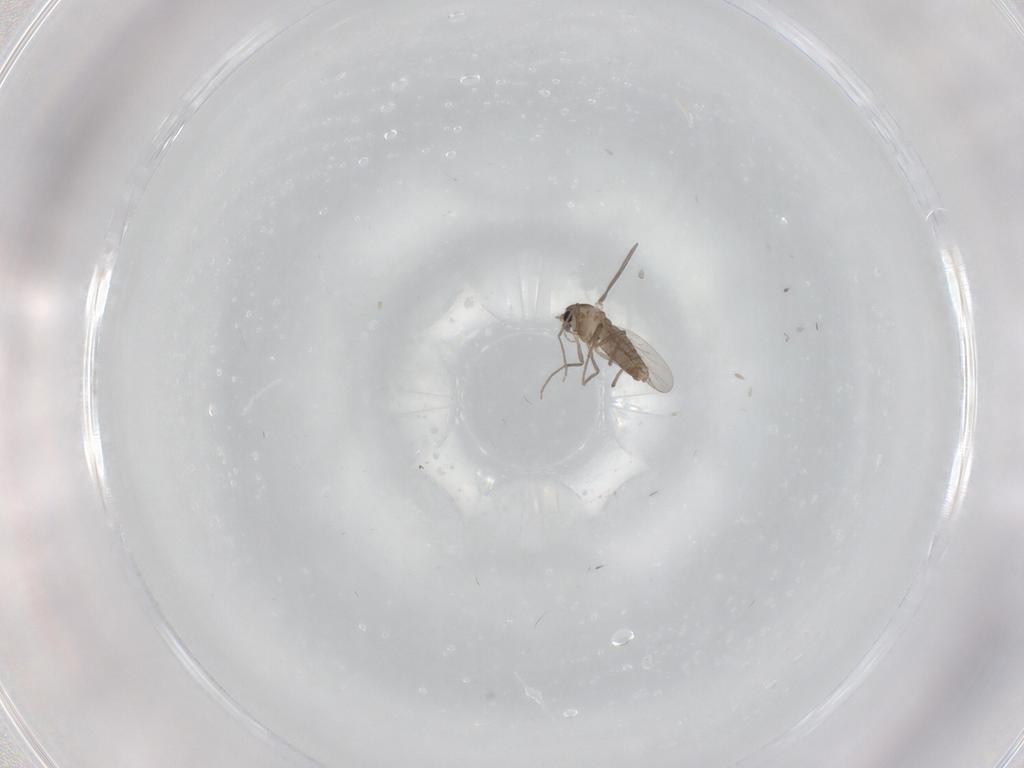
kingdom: Animalia
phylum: Arthropoda
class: Insecta
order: Diptera
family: Chironomidae
